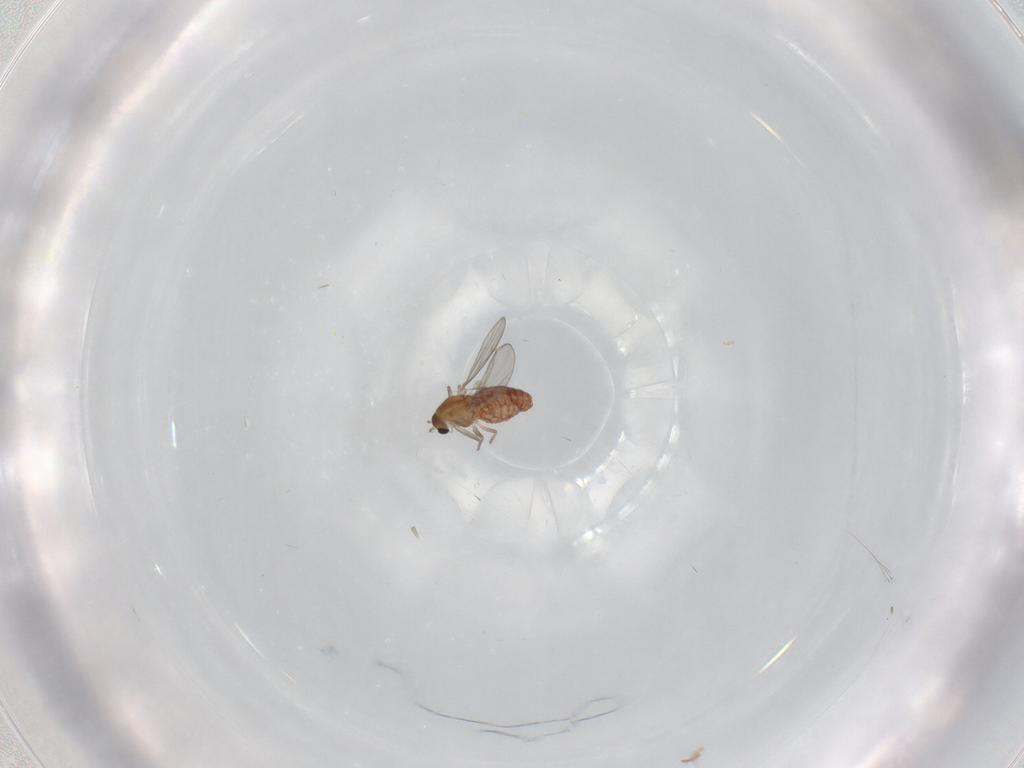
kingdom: Animalia
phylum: Arthropoda
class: Insecta
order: Diptera
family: Chironomidae
